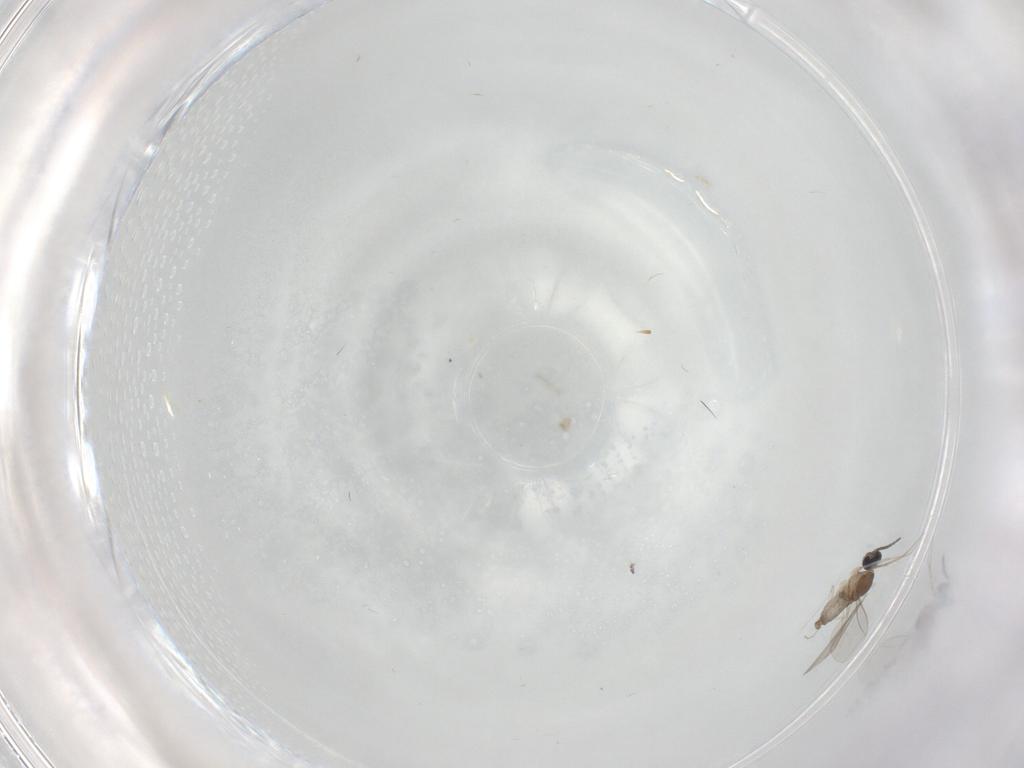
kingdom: Animalia
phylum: Arthropoda
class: Insecta
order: Diptera
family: Cecidomyiidae
